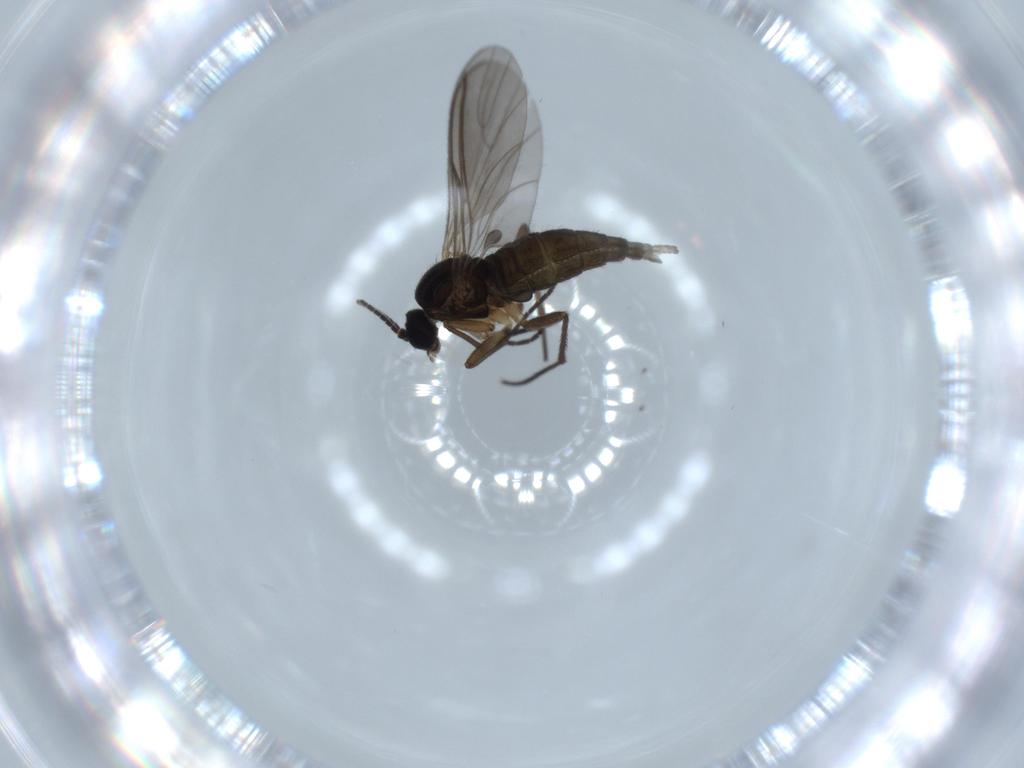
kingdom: Animalia
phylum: Arthropoda
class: Insecta
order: Diptera
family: Sciaridae
